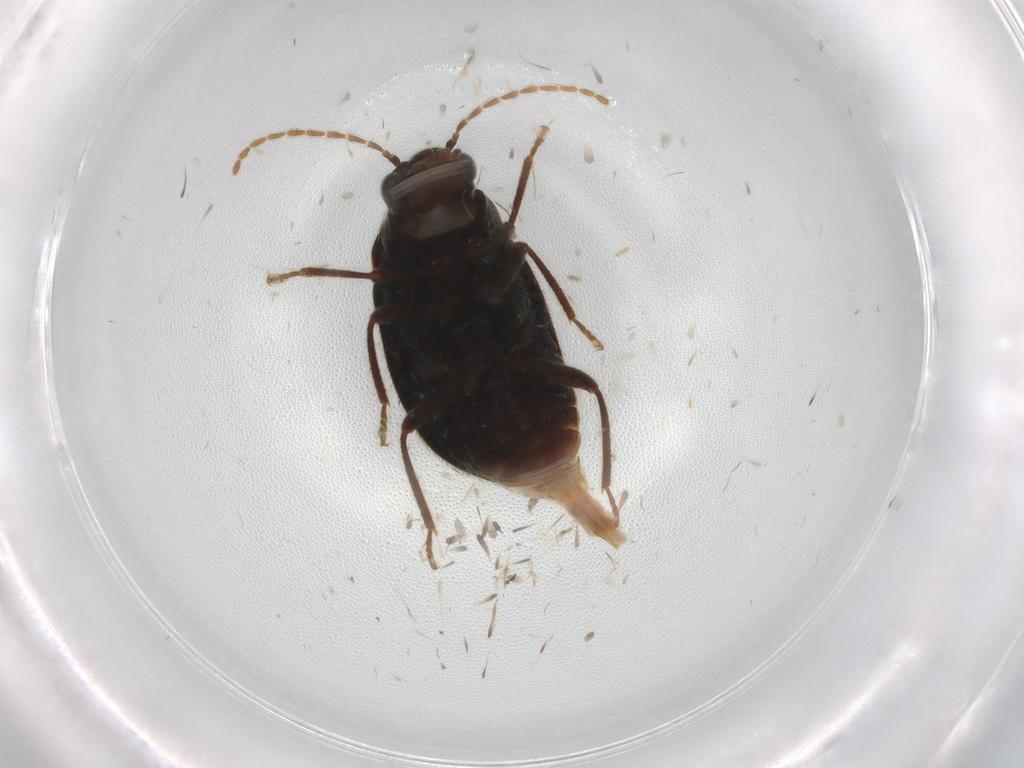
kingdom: Animalia
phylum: Arthropoda
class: Insecta
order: Coleoptera
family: Ptilodactylidae
